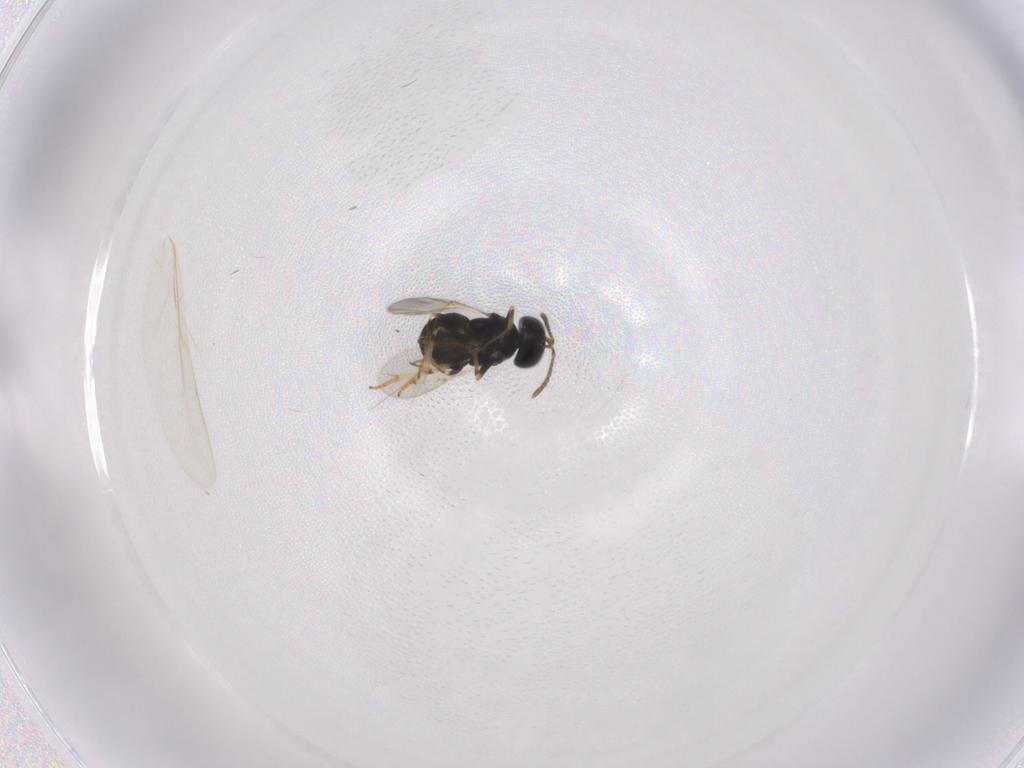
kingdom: Animalia
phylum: Arthropoda
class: Insecta
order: Hymenoptera
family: Formicidae
